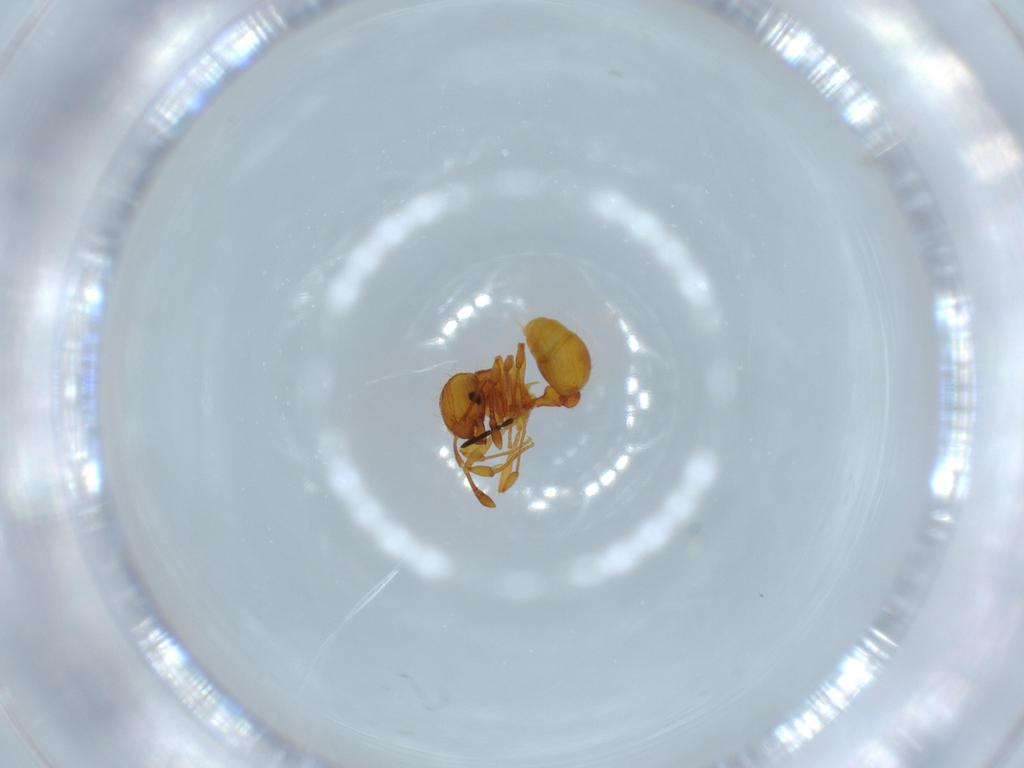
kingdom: Animalia
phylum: Arthropoda
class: Insecta
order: Hymenoptera
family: Formicidae
